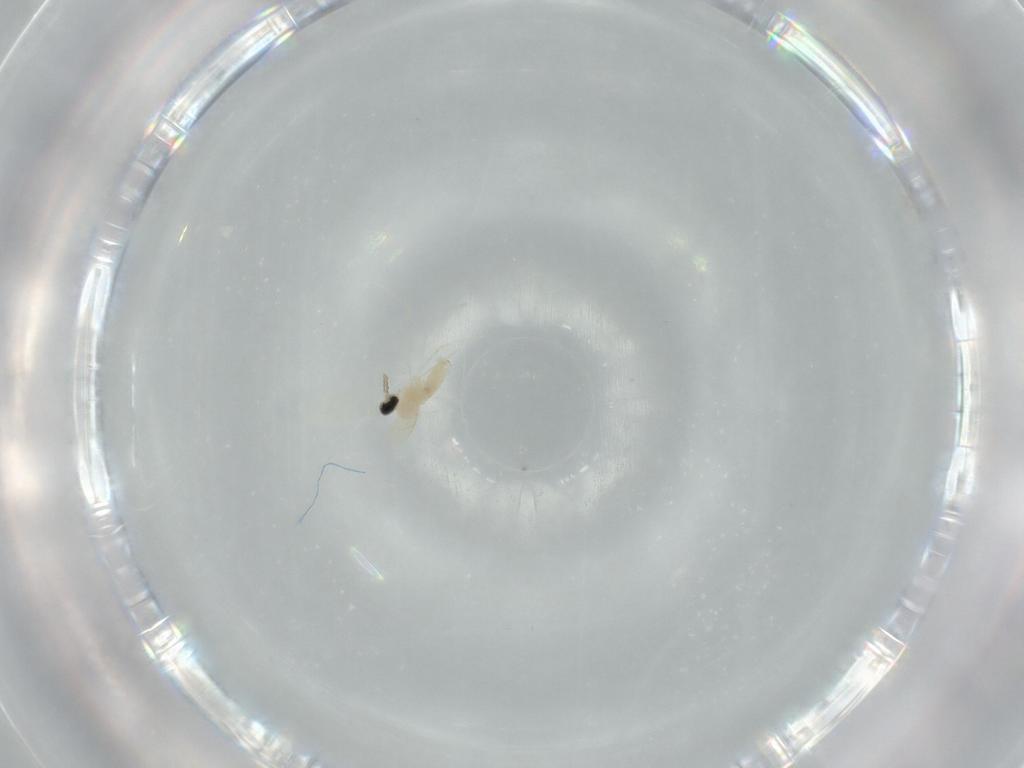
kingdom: Animalia
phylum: Arthropoda
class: Insecta
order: Diptera
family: Cecidomyiidae
